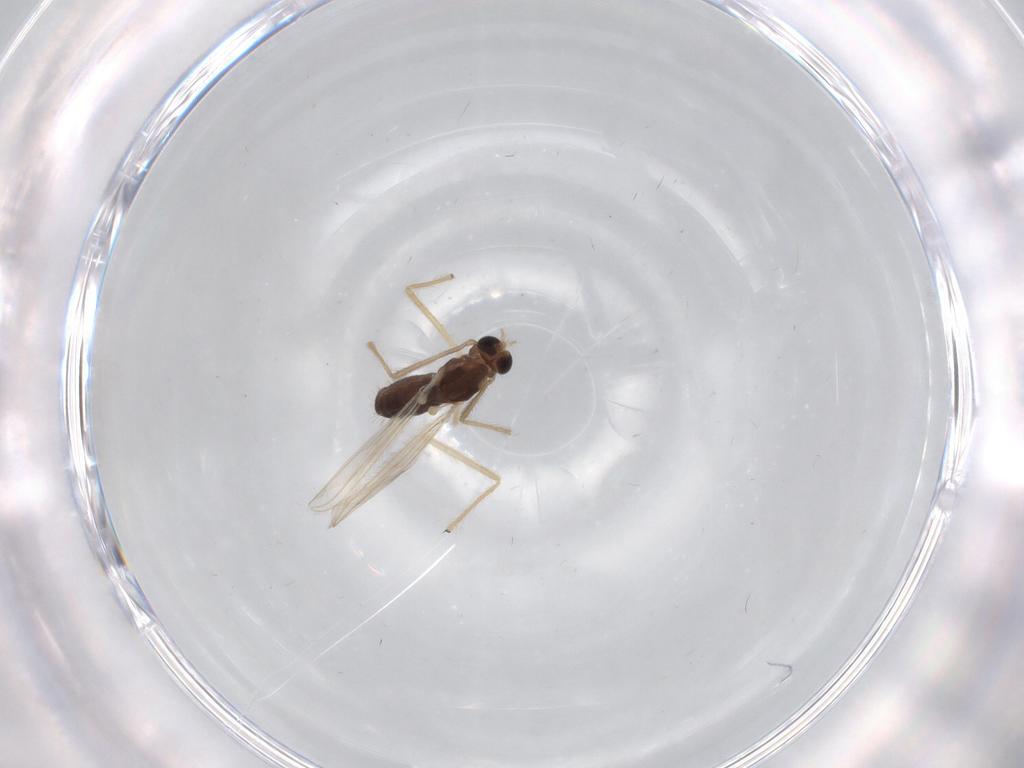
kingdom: Animalia
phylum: Arthropoda
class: Insecta
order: Diptera
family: Chironomidae
